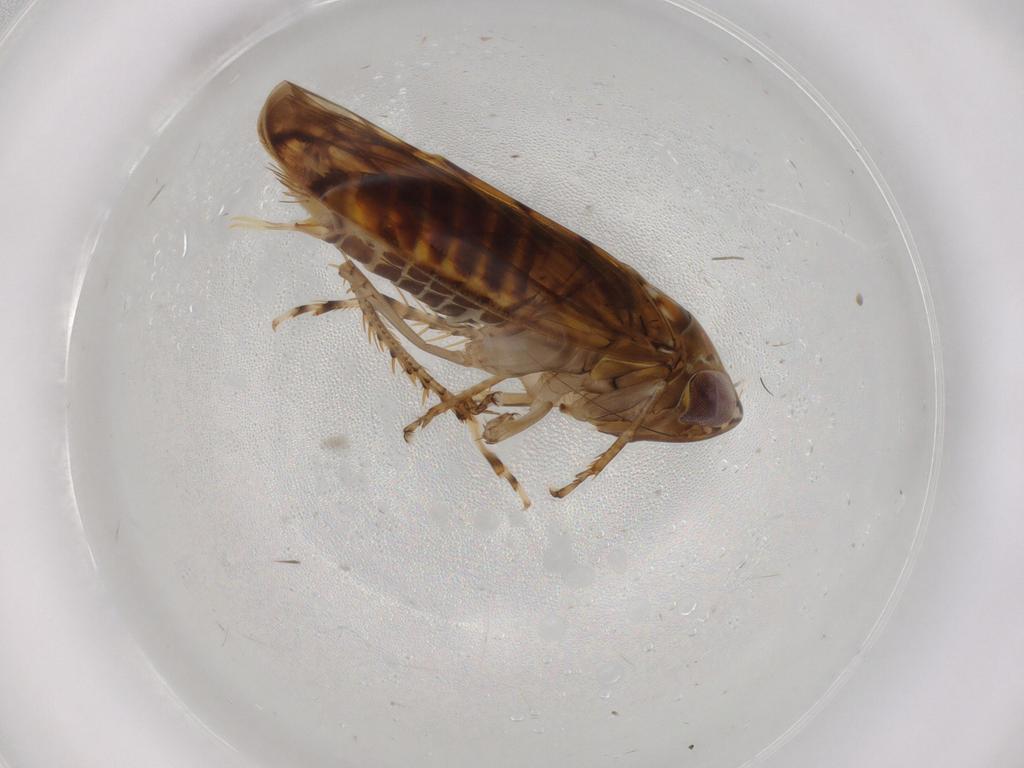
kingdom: Animalia
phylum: Arthropoda
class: Insecta
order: Hemiptera
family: Cicadellidae
